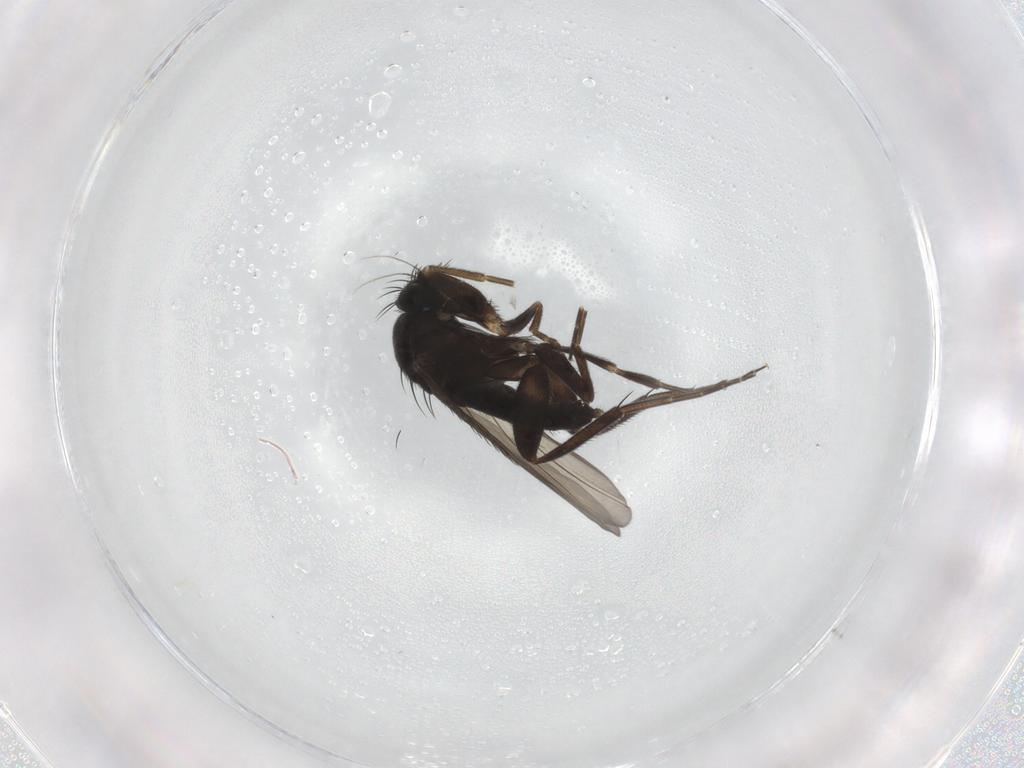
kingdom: Animalia
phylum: Arthropoda
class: Insecta
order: Diptera
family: Phoridae
